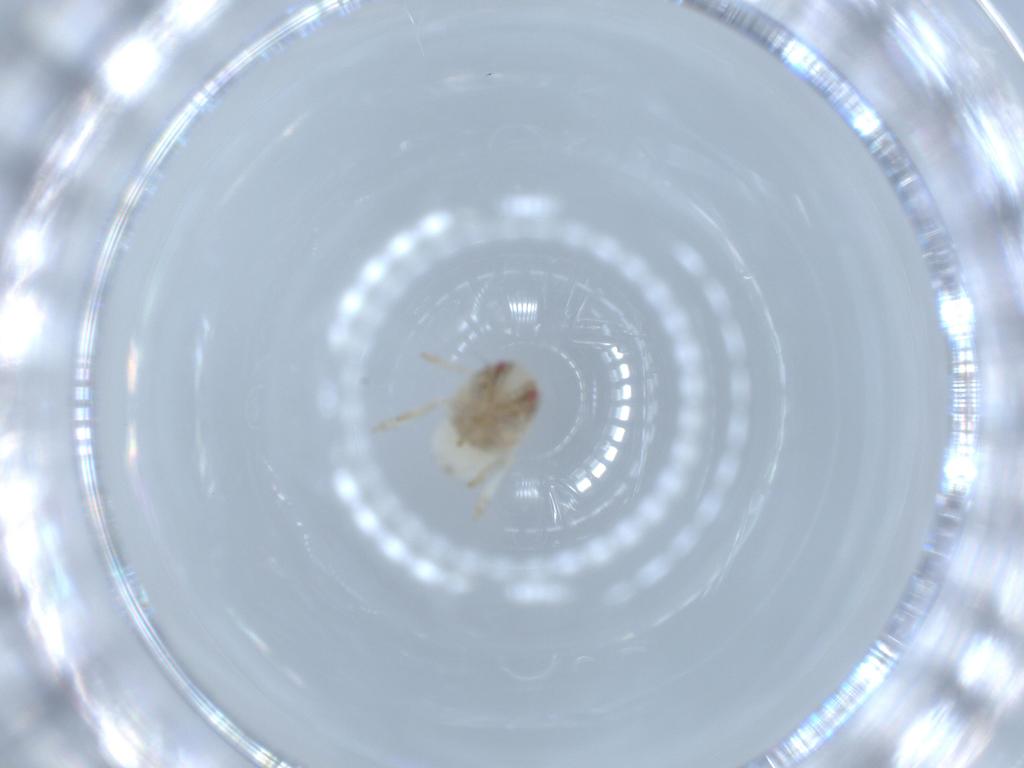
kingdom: Animalia
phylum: Arthropoda
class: Insecta
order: Hemiptera
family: Acanaloniidae
